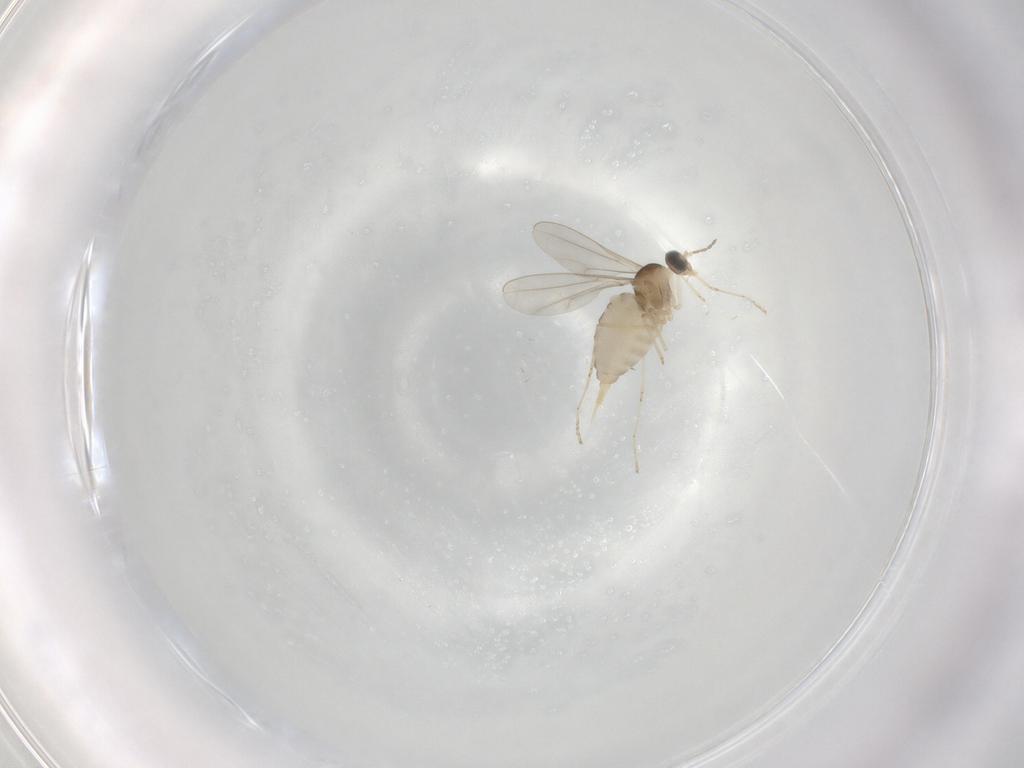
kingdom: Animalia
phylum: Arthropoda
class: Insecta
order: Diptera
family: Cecidomyiidae
